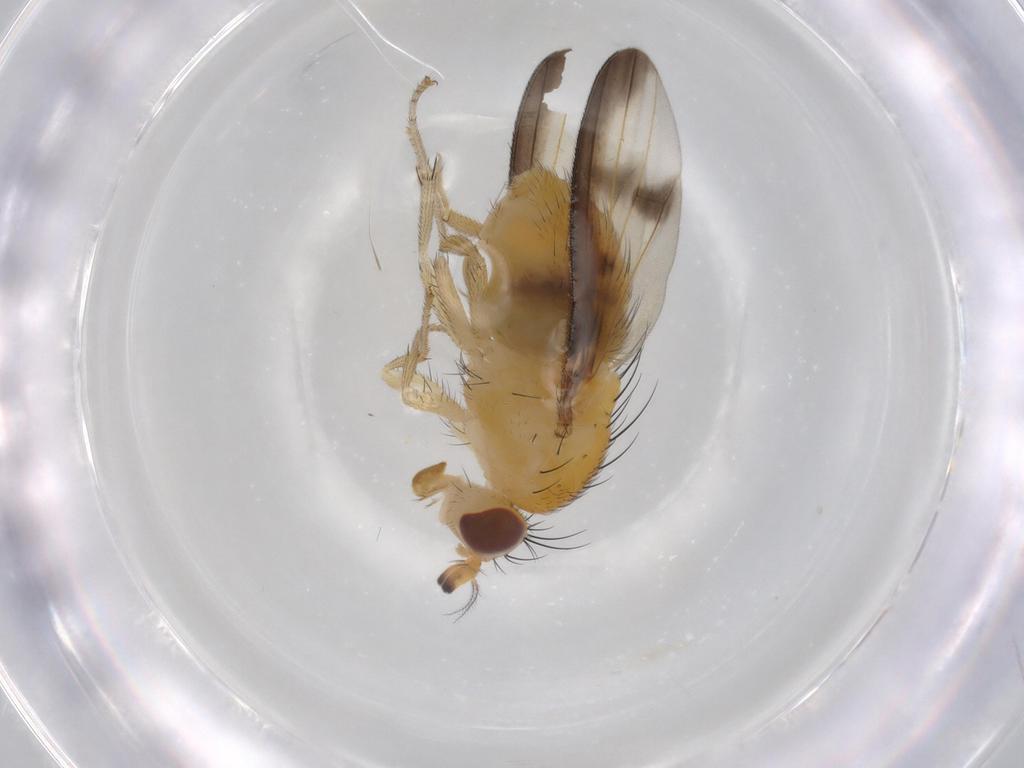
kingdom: Animalia
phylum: Arthropoda
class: Insecta
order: Diptera
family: Lauxaniidae
